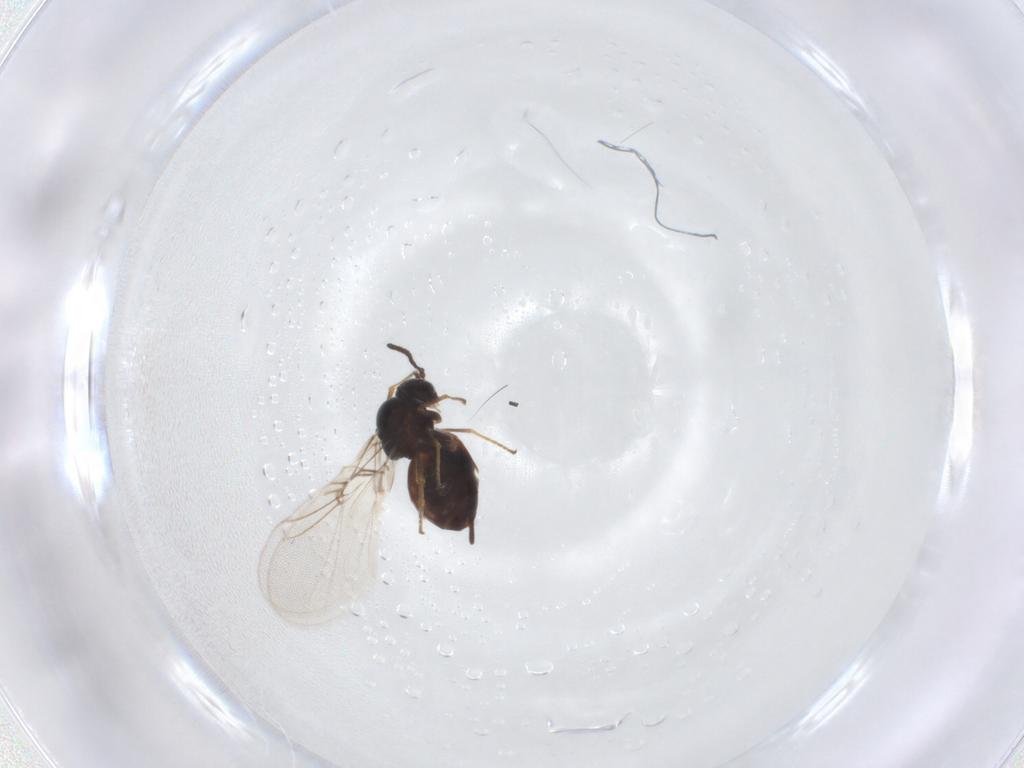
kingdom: Animalia
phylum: Arthropoda
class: Insecta
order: Hymenoptera
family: Cynipidae
